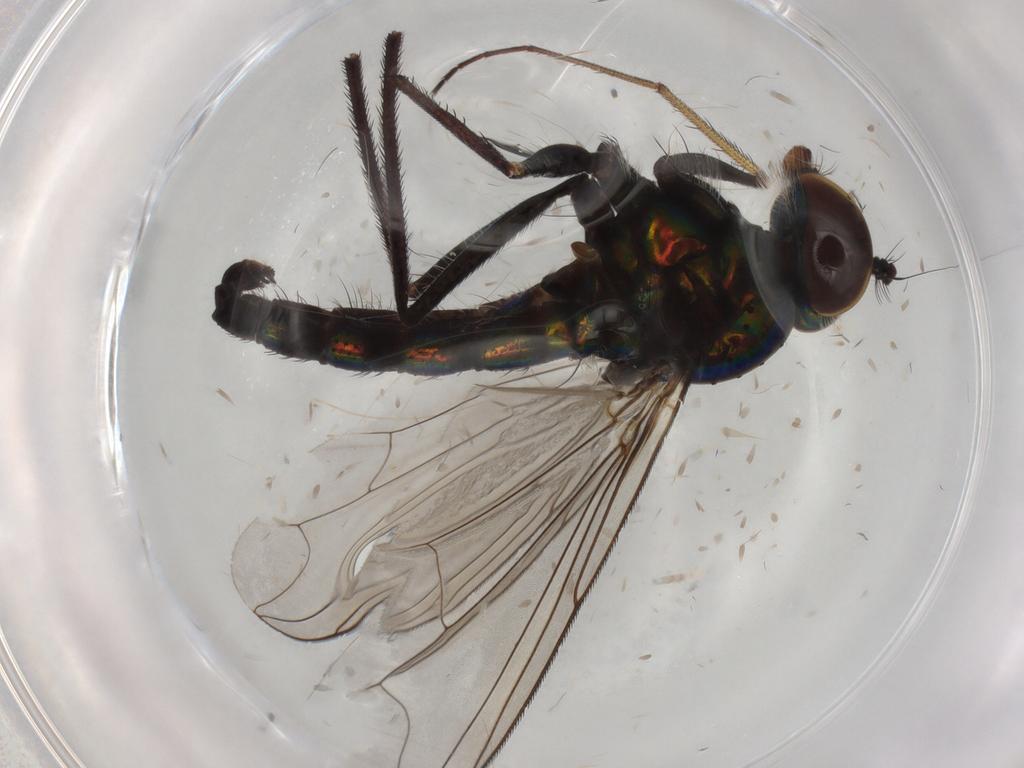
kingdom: Animalia
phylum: Arthropoda
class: Insecta
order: Diptera
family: Dolichopodidae
